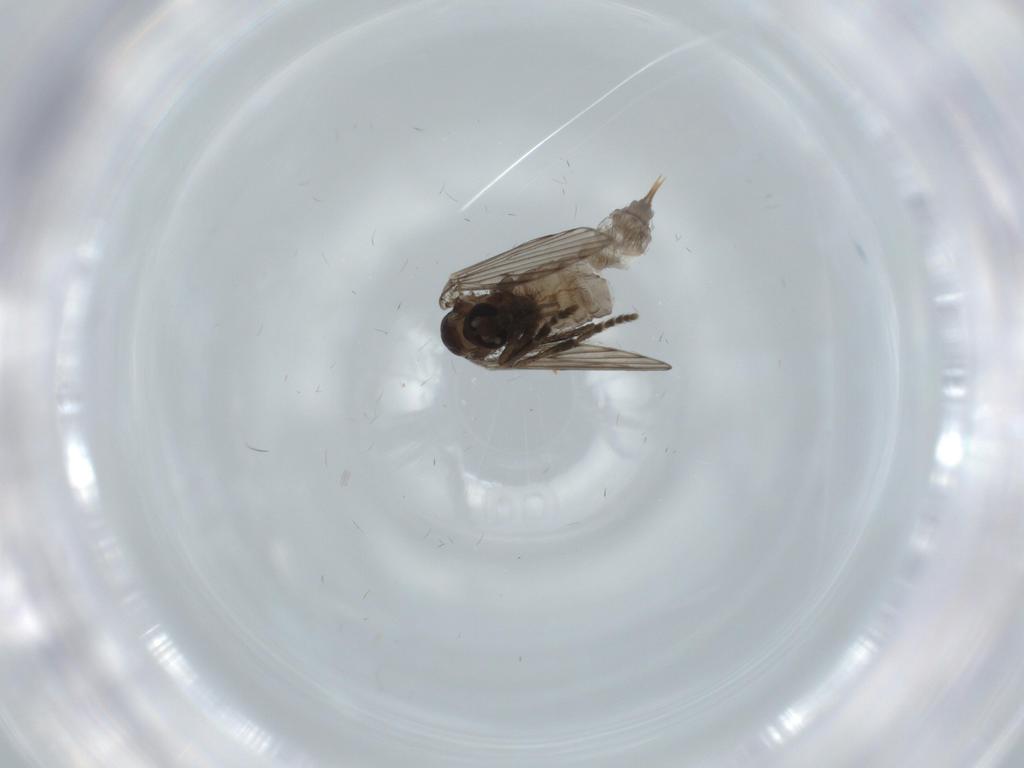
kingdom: Animalia
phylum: Arthropoda
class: Insecta
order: Diptera
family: Psychodidae
